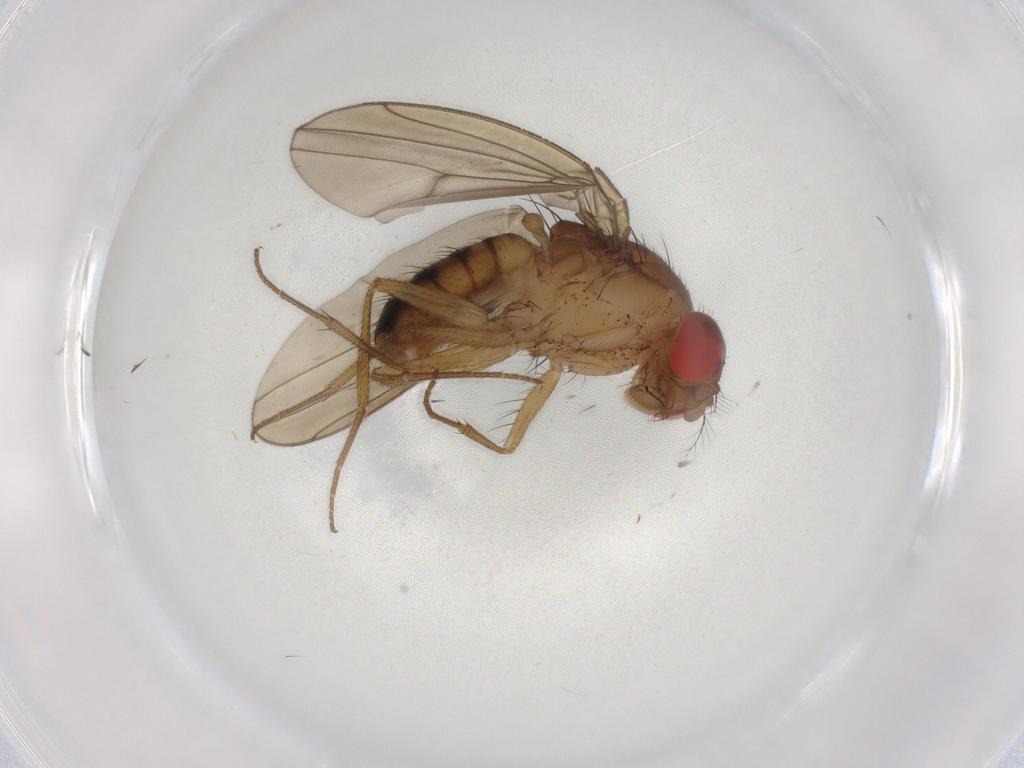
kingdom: Animalia
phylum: Arthropoda
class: Insecta
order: Diptera
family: Drosophilidae
